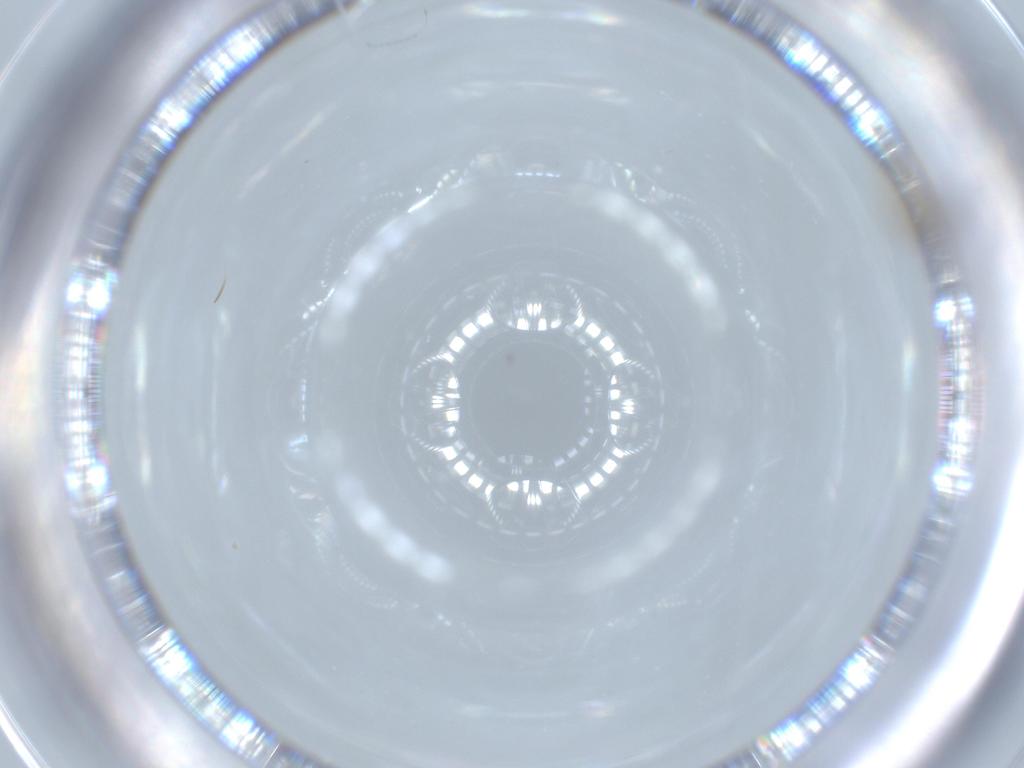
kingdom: Animalia
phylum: Arthropoda
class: Insecta
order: Diptera
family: Cecidomyiidae
